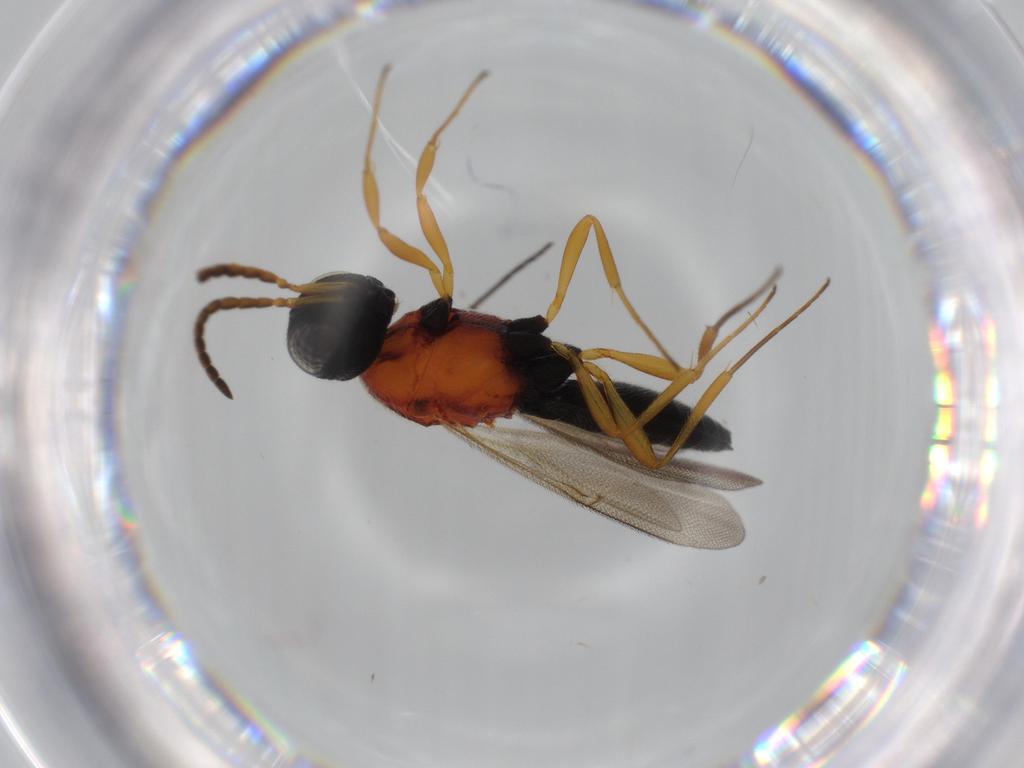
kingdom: Animalia
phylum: Arthropoda
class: Insecta
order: Hymenoptera
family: Scelionidae
